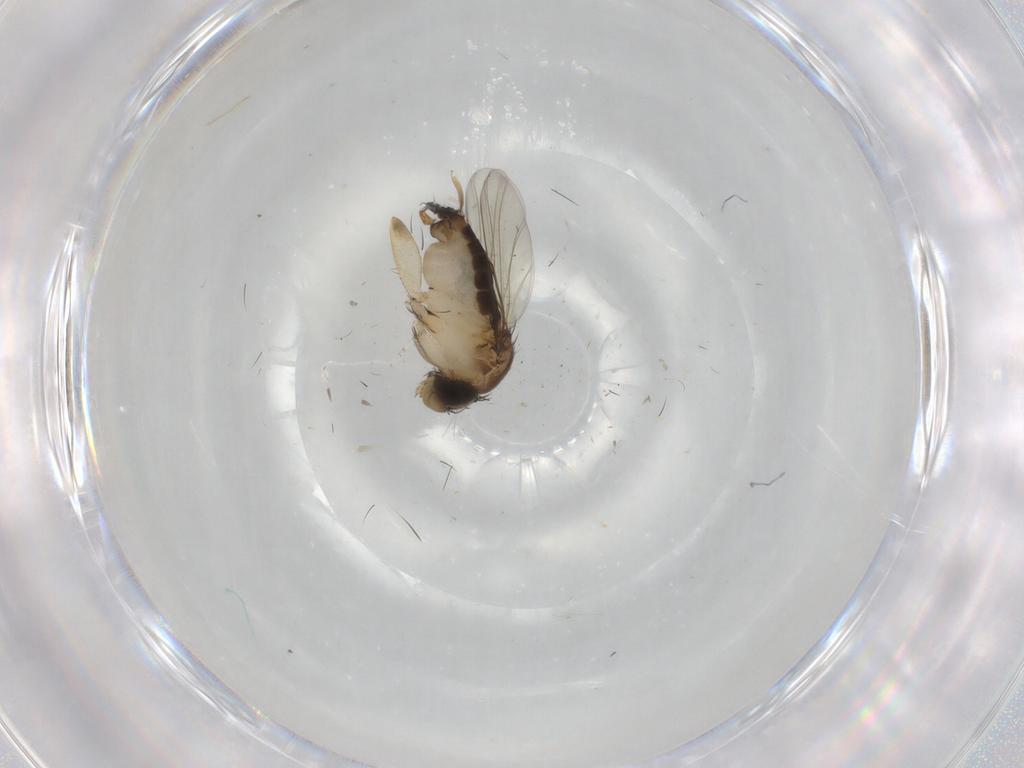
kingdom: Animalia
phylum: Arthropoda
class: Insecta
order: Diptera
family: Phoridae
